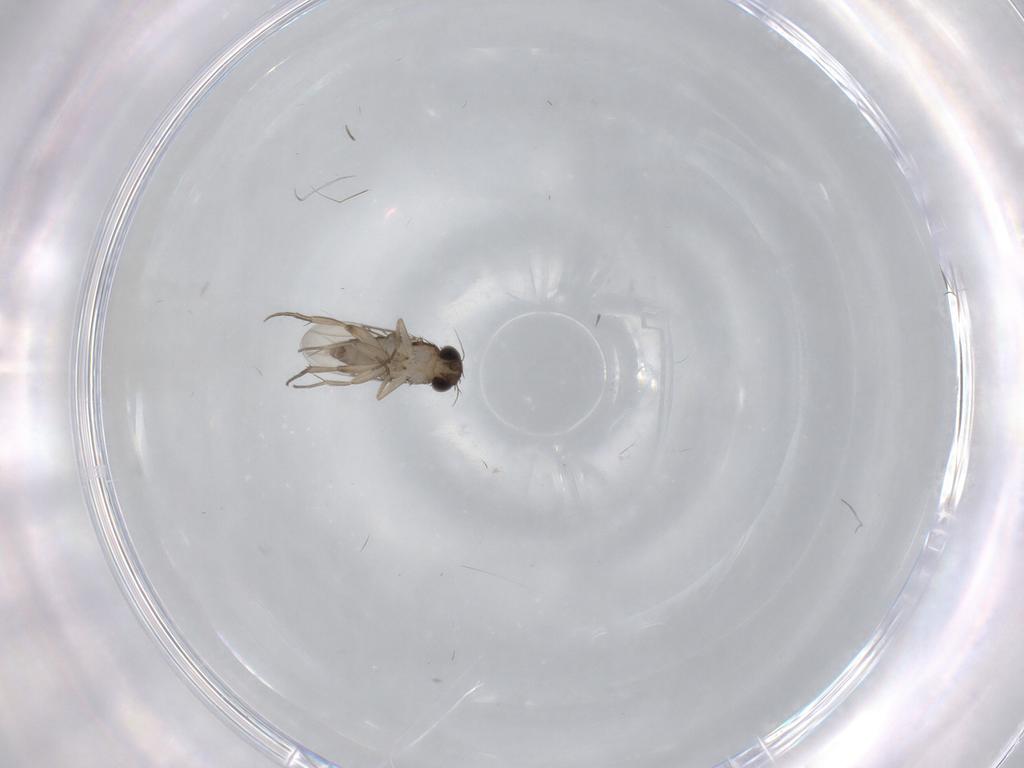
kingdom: Animalia
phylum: Arthropoda
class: Insecta
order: Diptera
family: Phoridae
